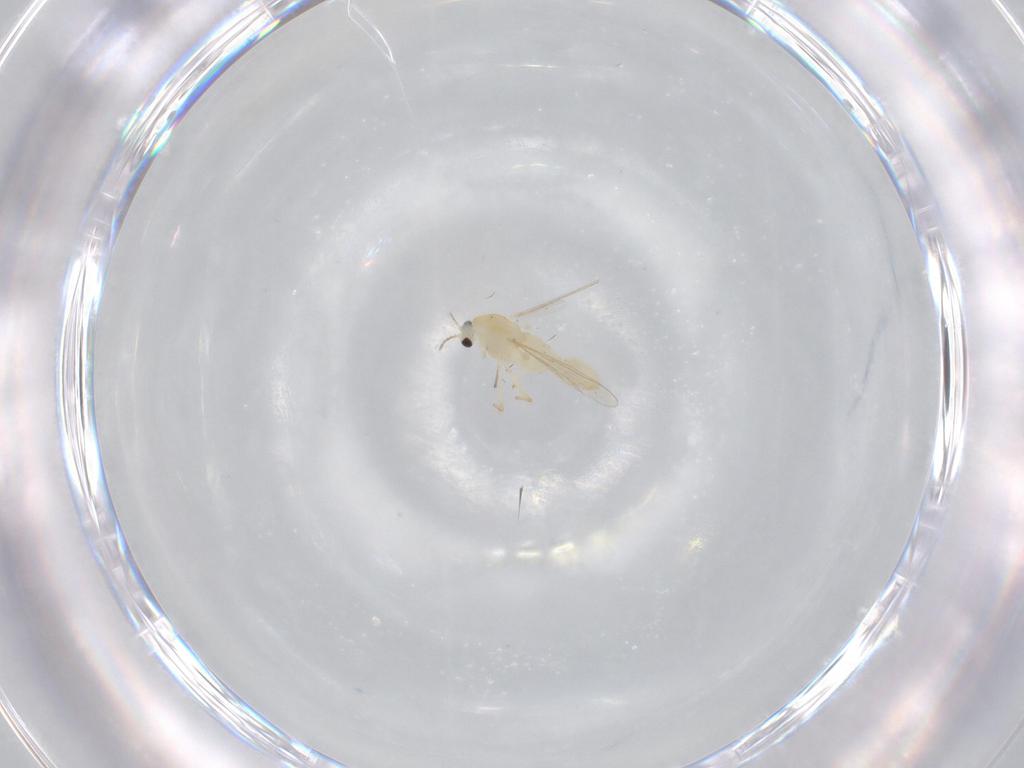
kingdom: Animalia
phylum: Arthropoda
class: Insecta
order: Diptera
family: Chironomidae
